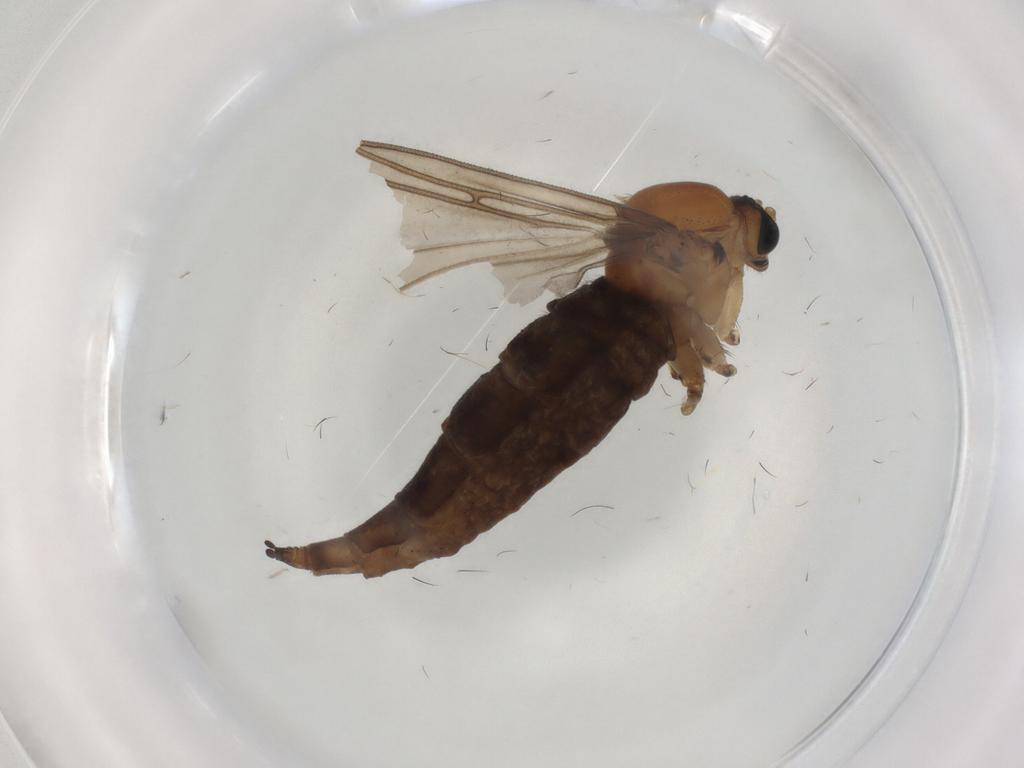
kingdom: Animalia
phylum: Arthropoda
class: Insecta
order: Diptera
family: Sciaridae
